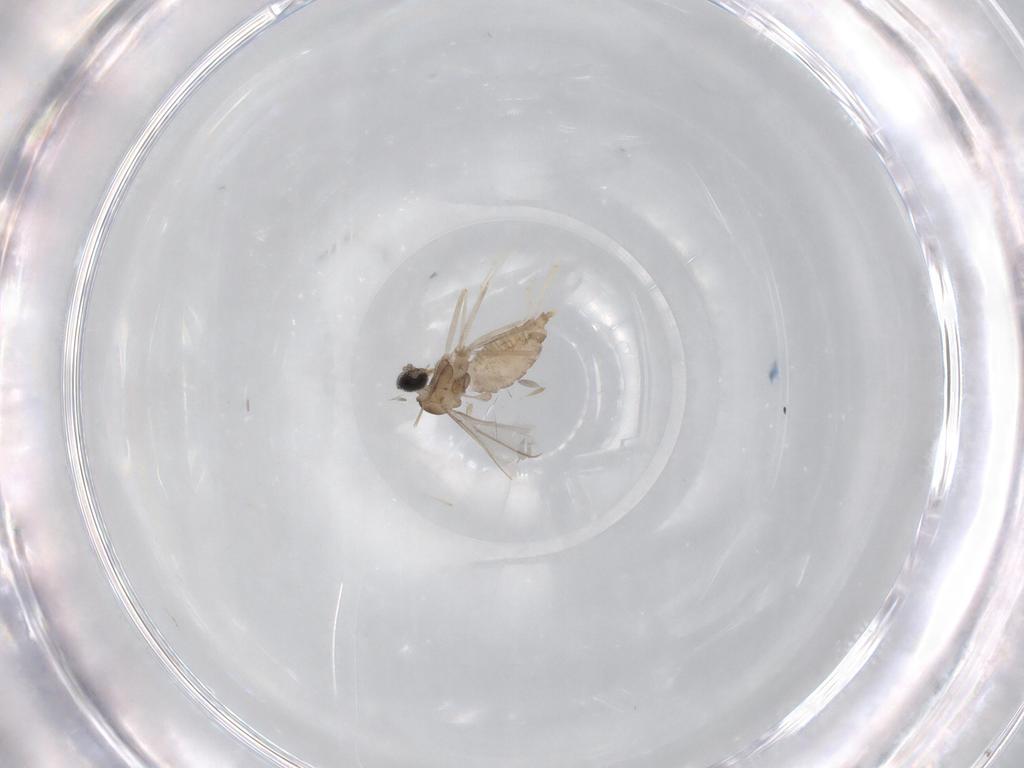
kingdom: Animalia
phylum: Arthropoda
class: Insecta
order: Diptera
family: Cecidomyiidae
